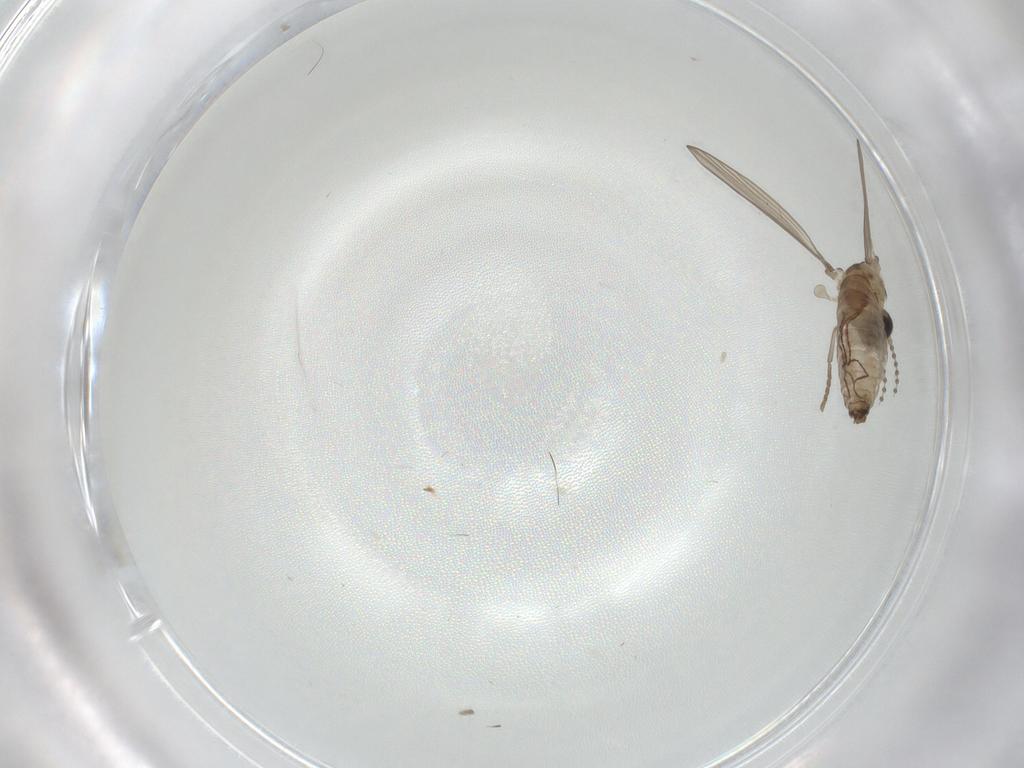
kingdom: Animalia
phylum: Arthropoda
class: Insecta
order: Diptera
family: Psychodidae
